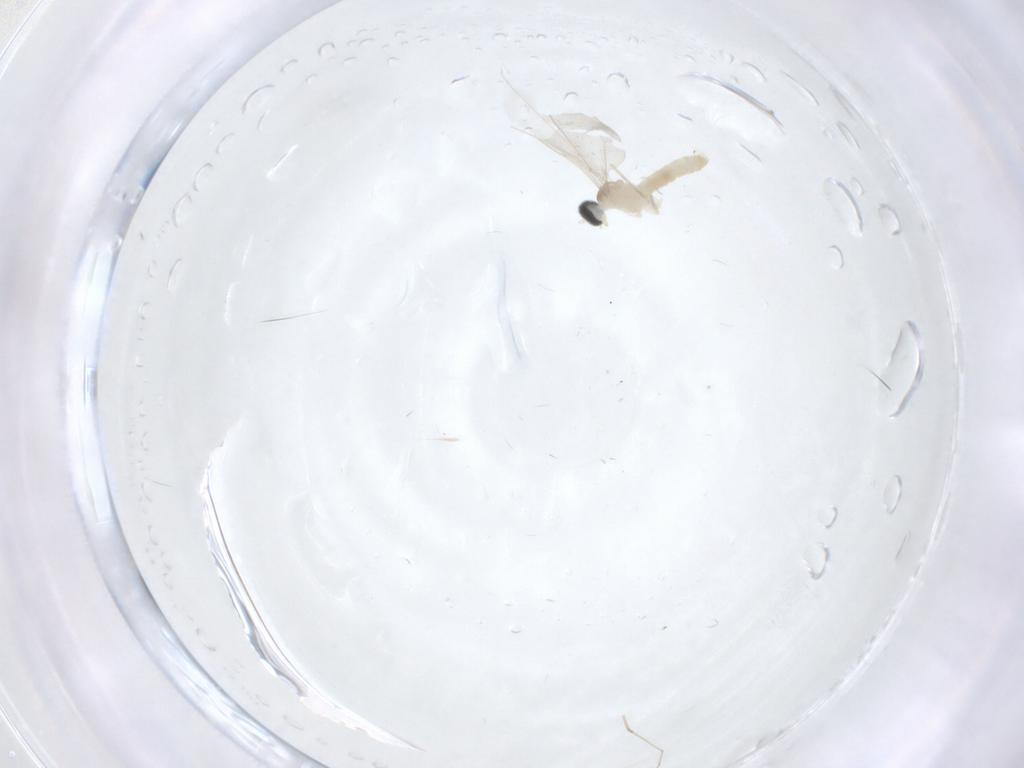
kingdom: Animalia
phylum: Arthropoda
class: Insecta
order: Diptera
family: Cecidomyiidae
